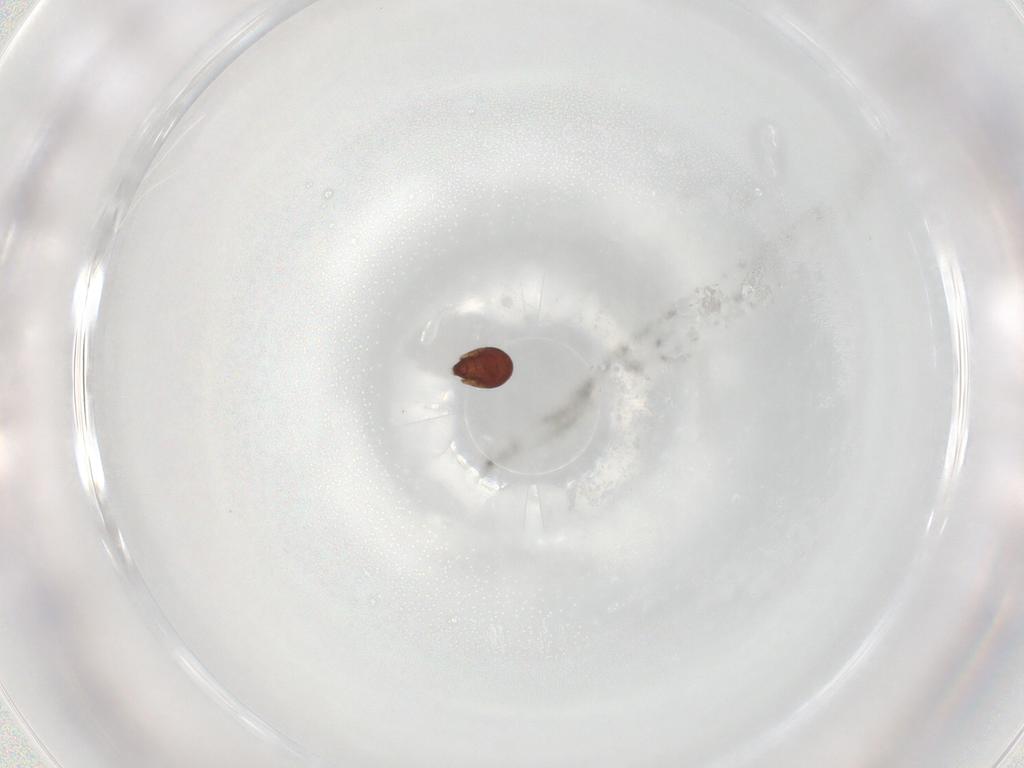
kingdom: Animalia
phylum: Arthropoda
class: Arachnida
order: Sarcoptiformes
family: Ceratozetidae
